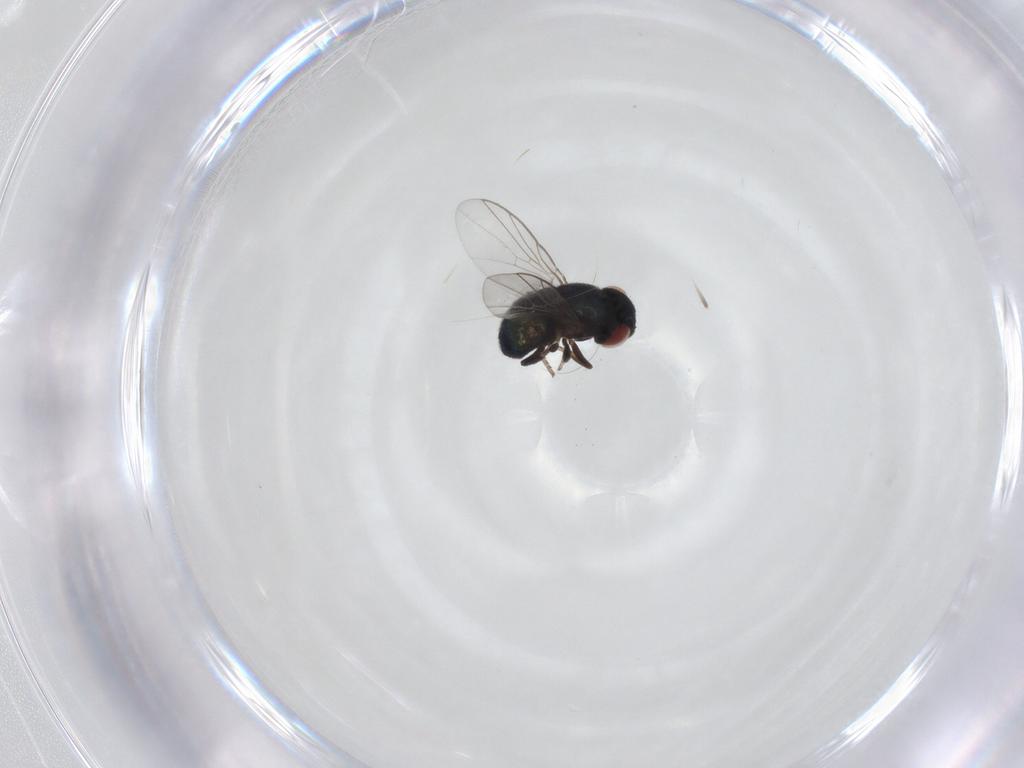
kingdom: Animalia
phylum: Arthropoda
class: Insecta
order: Diptera
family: Cryptochetidae
